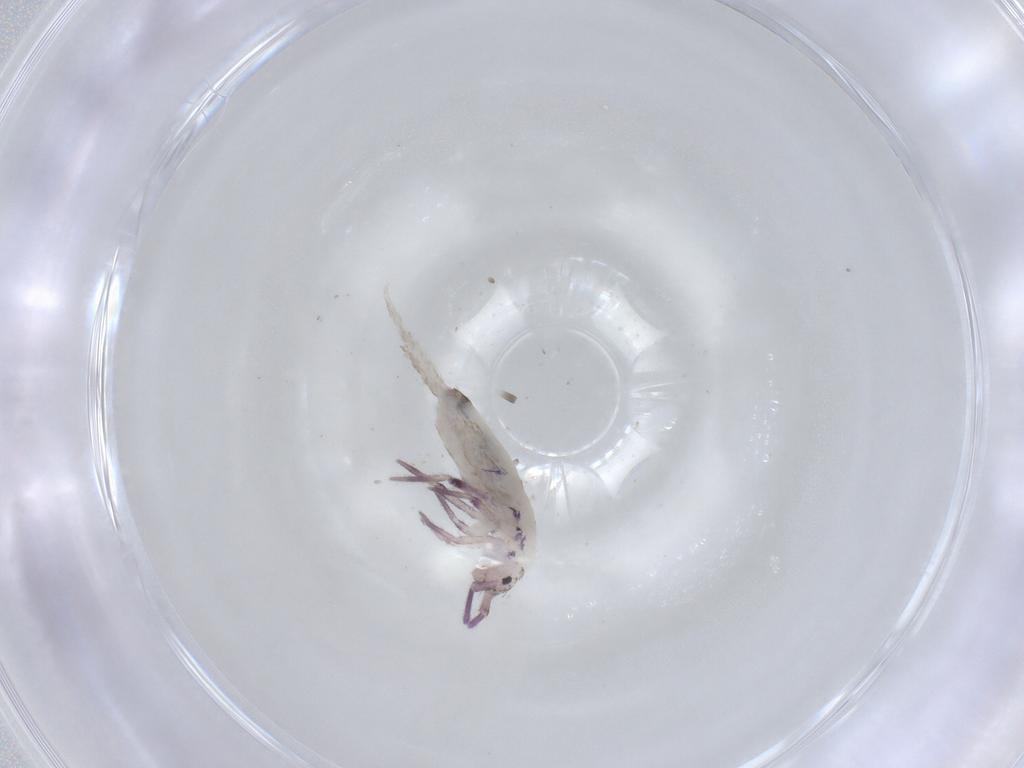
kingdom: Animalia
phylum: Arthropoda
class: Collembola
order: Entomobryomorpha
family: Entomobryidae
